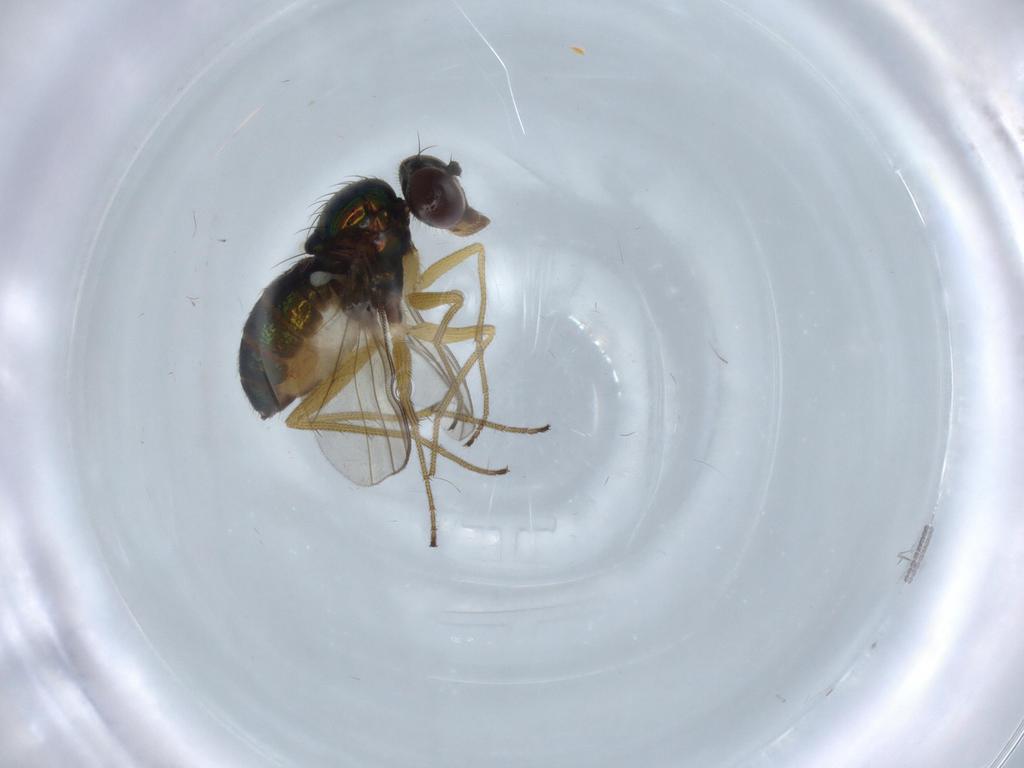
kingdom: Animalia
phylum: Arthropoda
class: Insecta
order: Diptera
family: Dolichopodidae
